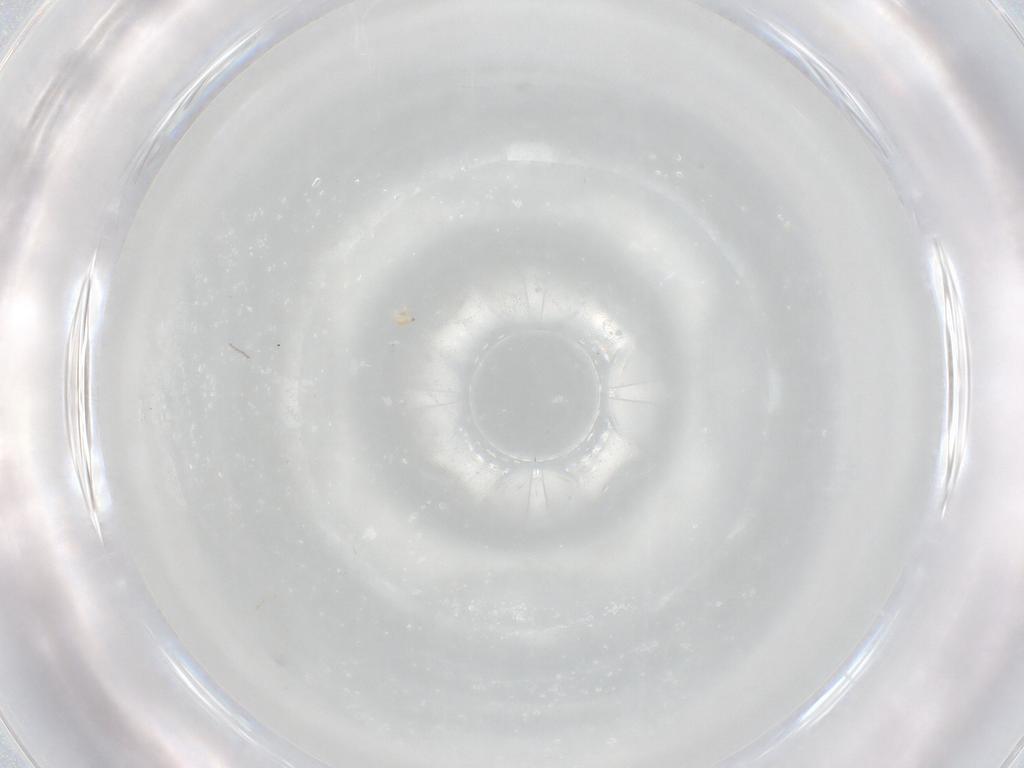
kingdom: Animalia
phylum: Arthropoda
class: Insecta
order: Diptera
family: Cecidomyiidae
